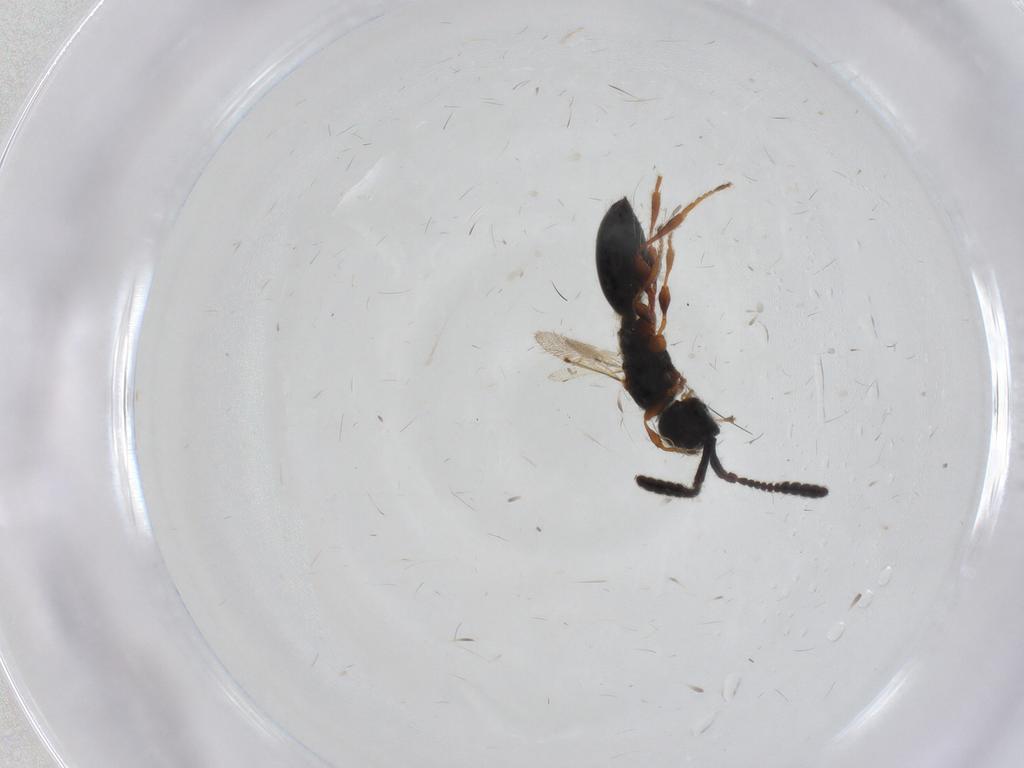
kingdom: Animalia
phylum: Arthropoda
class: Insecta
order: Hymenoptera
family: Diapriidae
